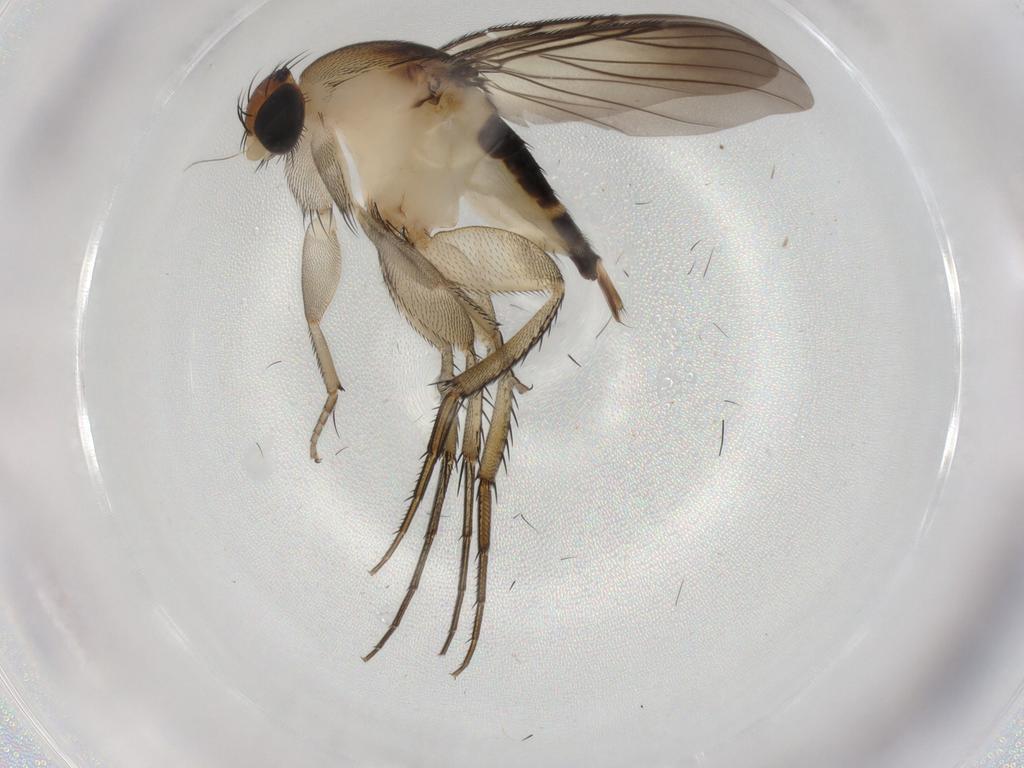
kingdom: Animalia
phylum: Arthropoda
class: Insecta
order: Diptera
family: Phoridae
